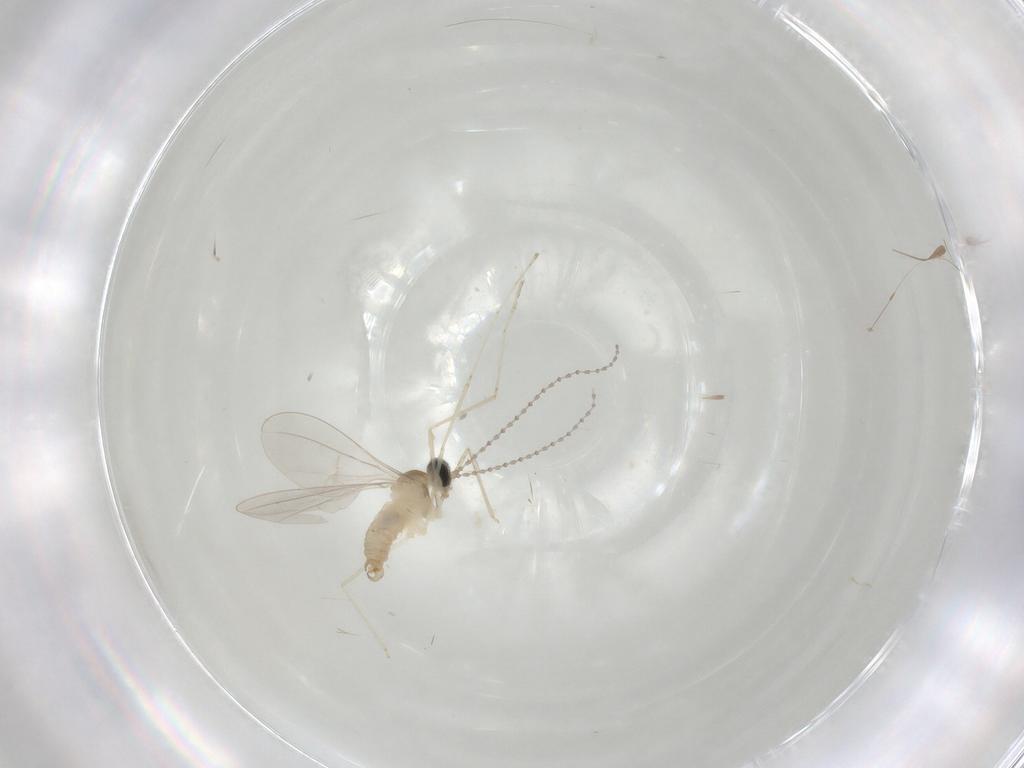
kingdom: Animalia
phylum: Arthropoda
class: Insecta
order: Diptera
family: Cecidomyiidae
